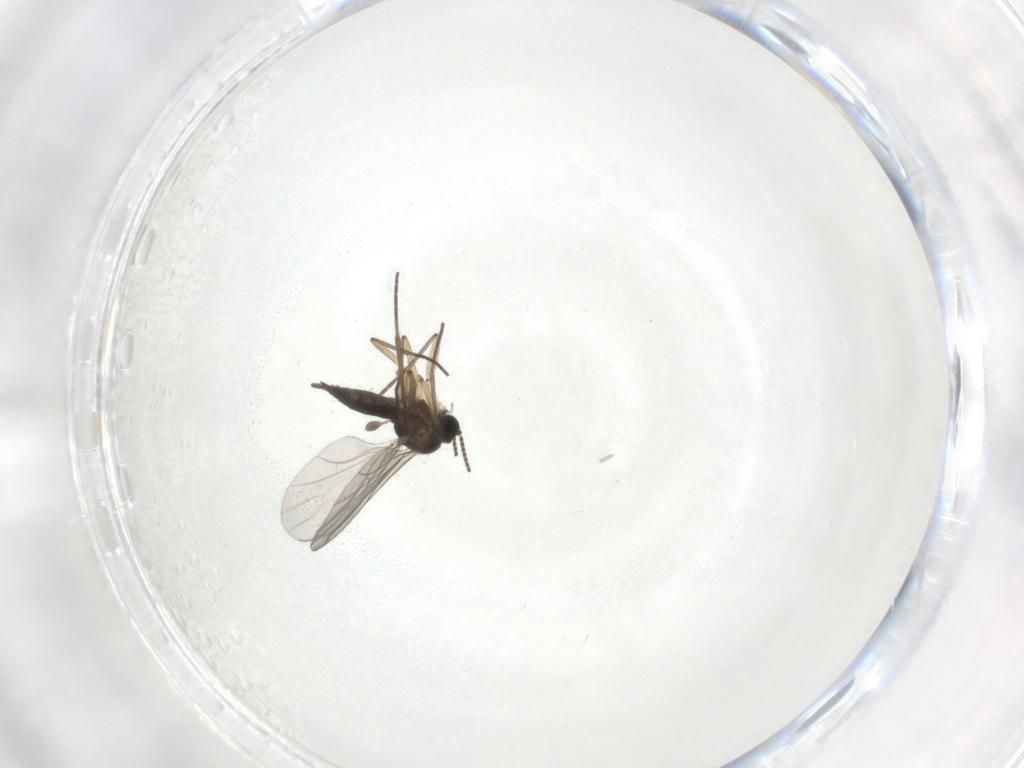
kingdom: Animalia
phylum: Arthropoda
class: Insecta
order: Diptera
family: Sciaridae
